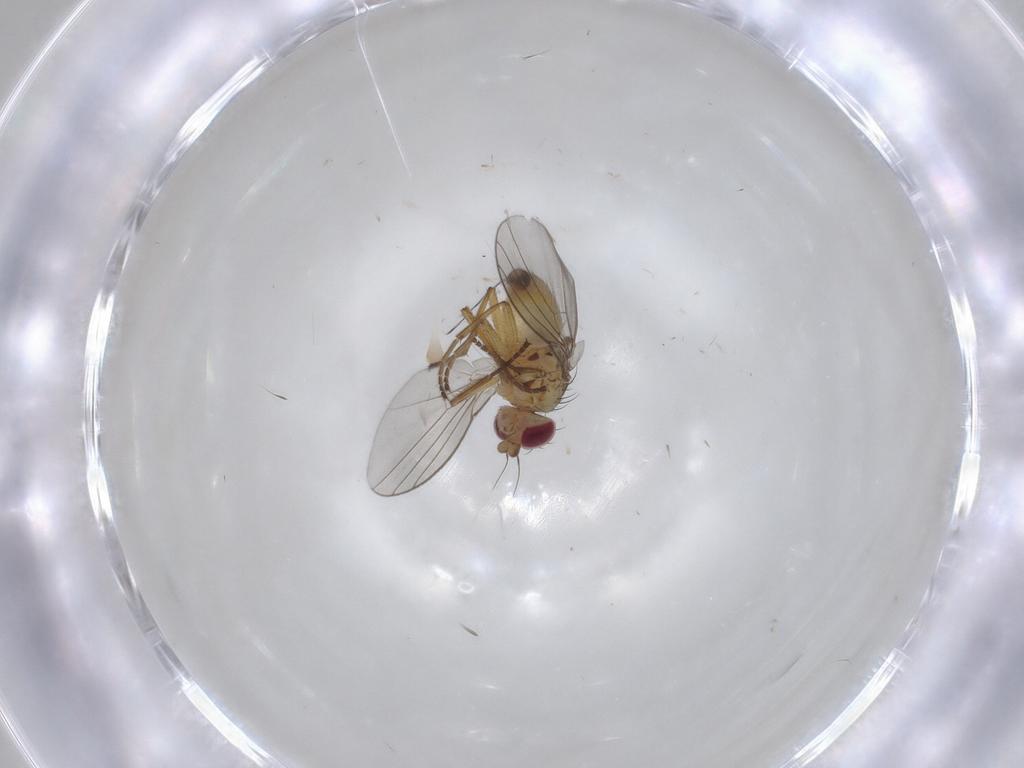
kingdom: Animalia
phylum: Arthropoda
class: Insecta
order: Diptera
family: Agromyzidae
